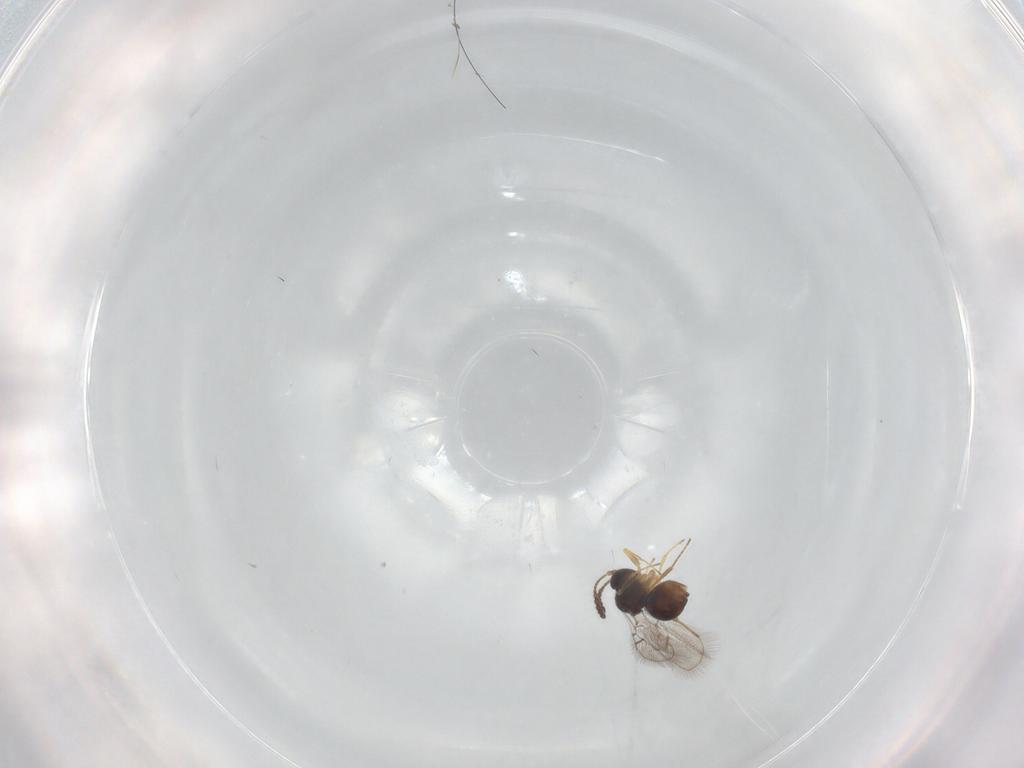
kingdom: Animalia
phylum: Arthropoda
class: Insecta
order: Hymenoptera
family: Figitidae
